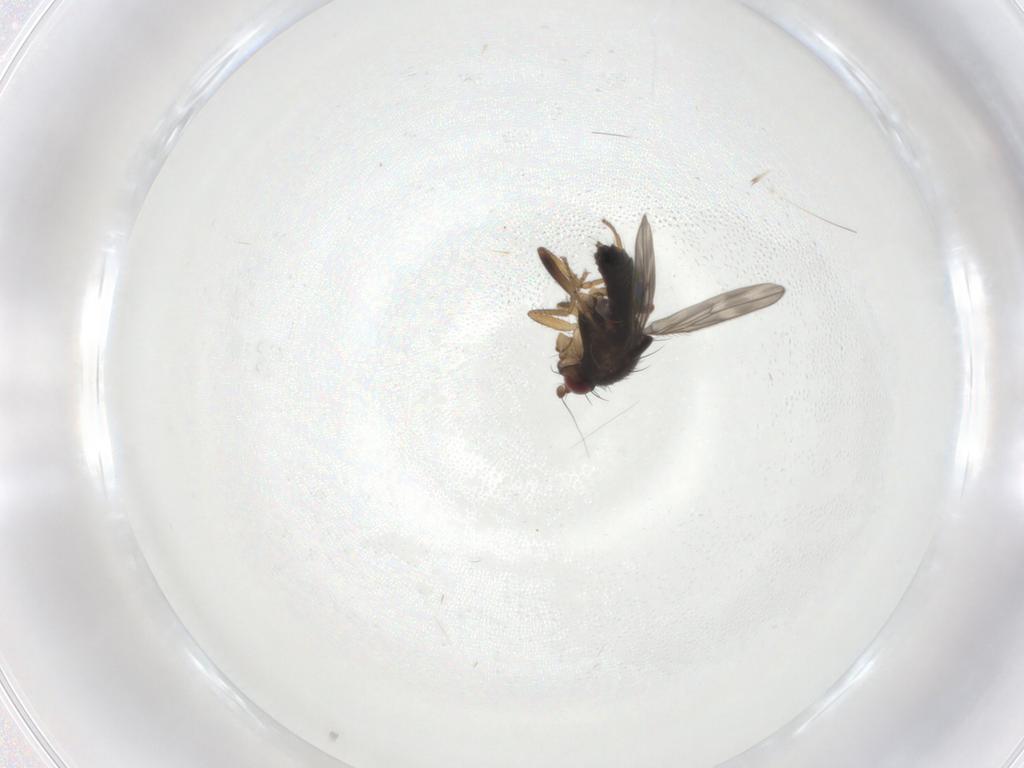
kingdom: Animalia
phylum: Arthropoda
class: Insecta
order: Diptera
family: Sphaeroceridae
